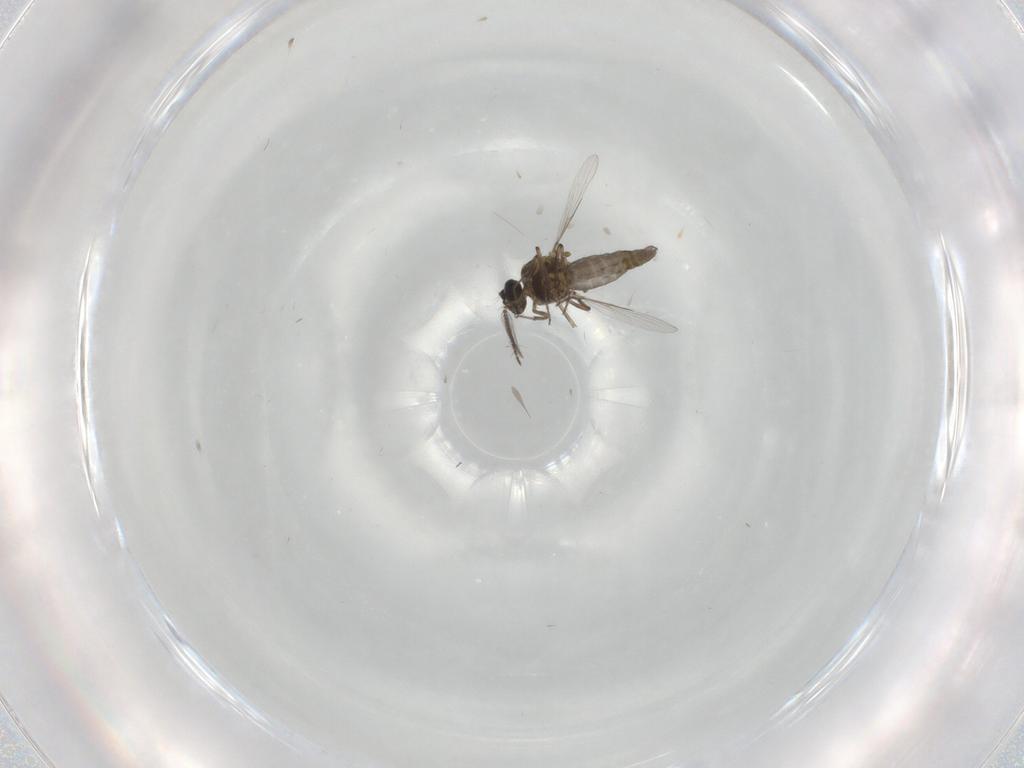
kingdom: Animalia
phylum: Arthropoda
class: Insecta
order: Diptera
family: Ceratopogonidae
